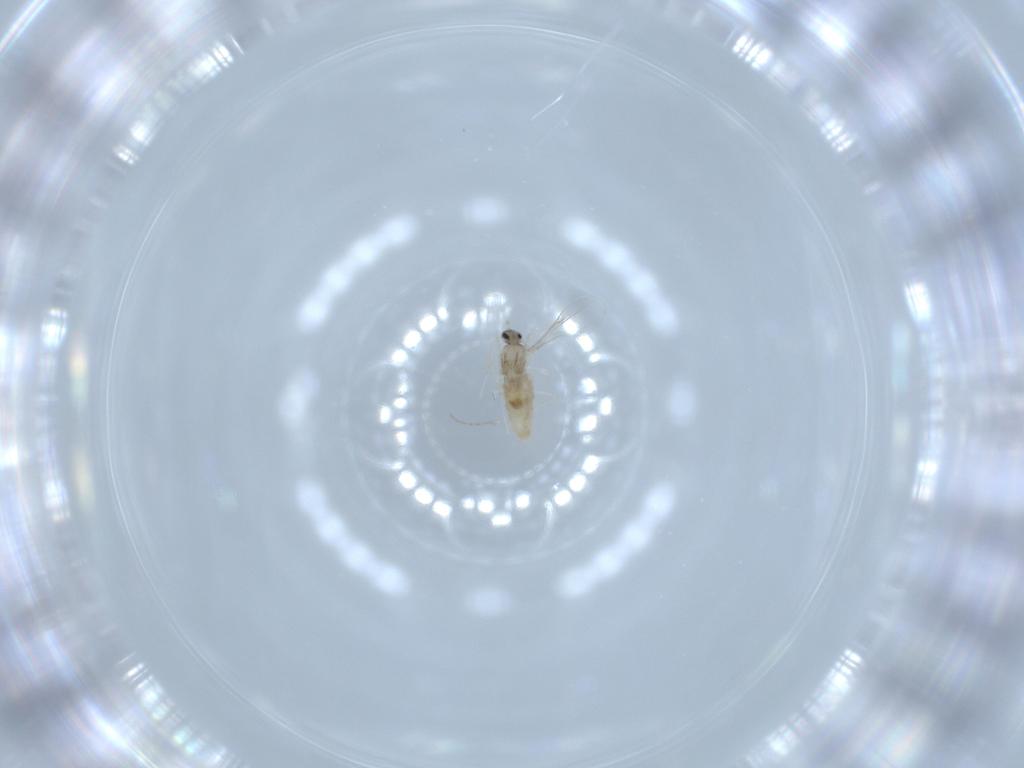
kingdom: Animalia
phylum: Arthropoda
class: Insecta
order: Diptera
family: Cecidomyiidae
